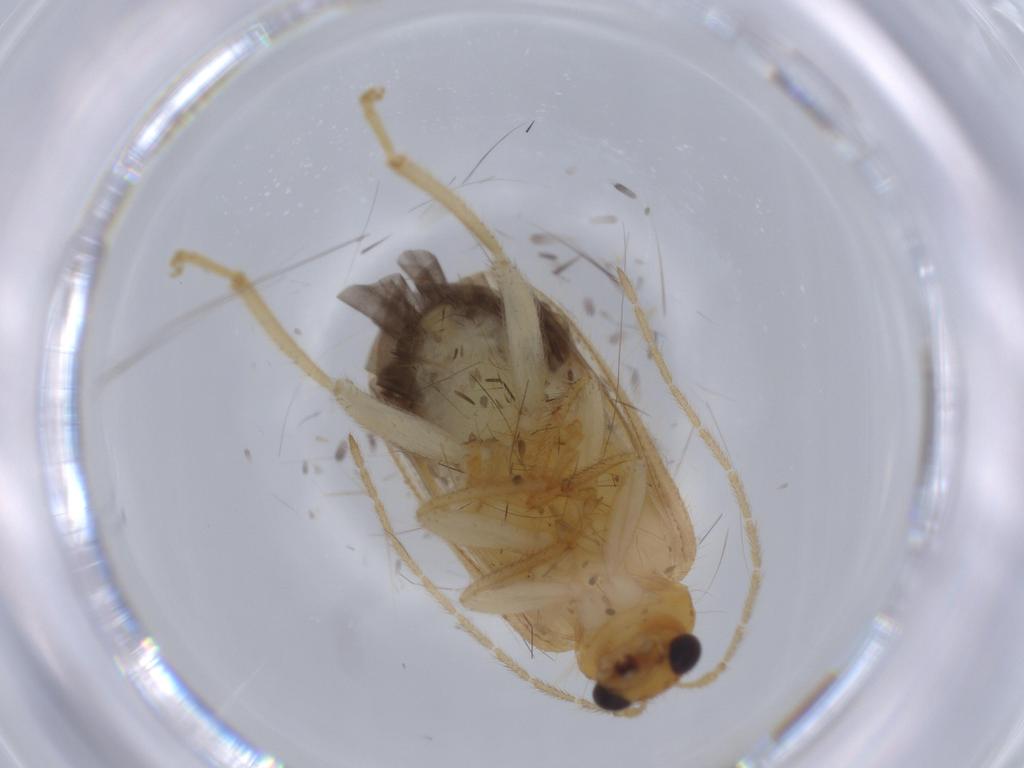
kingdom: Animalia
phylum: Arthropoda
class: Insecta
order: Coleoptera
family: Chrysomelidae
